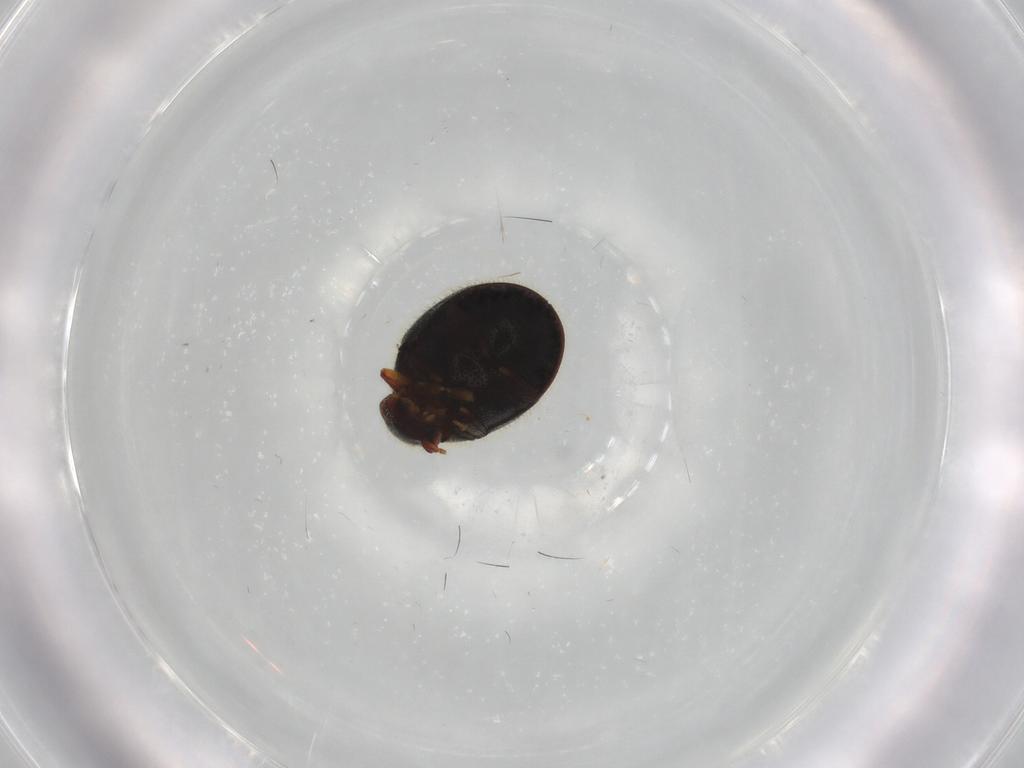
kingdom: Animalia
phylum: Arthropoda
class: Insecta
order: Coleoptera
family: Ptinidae
